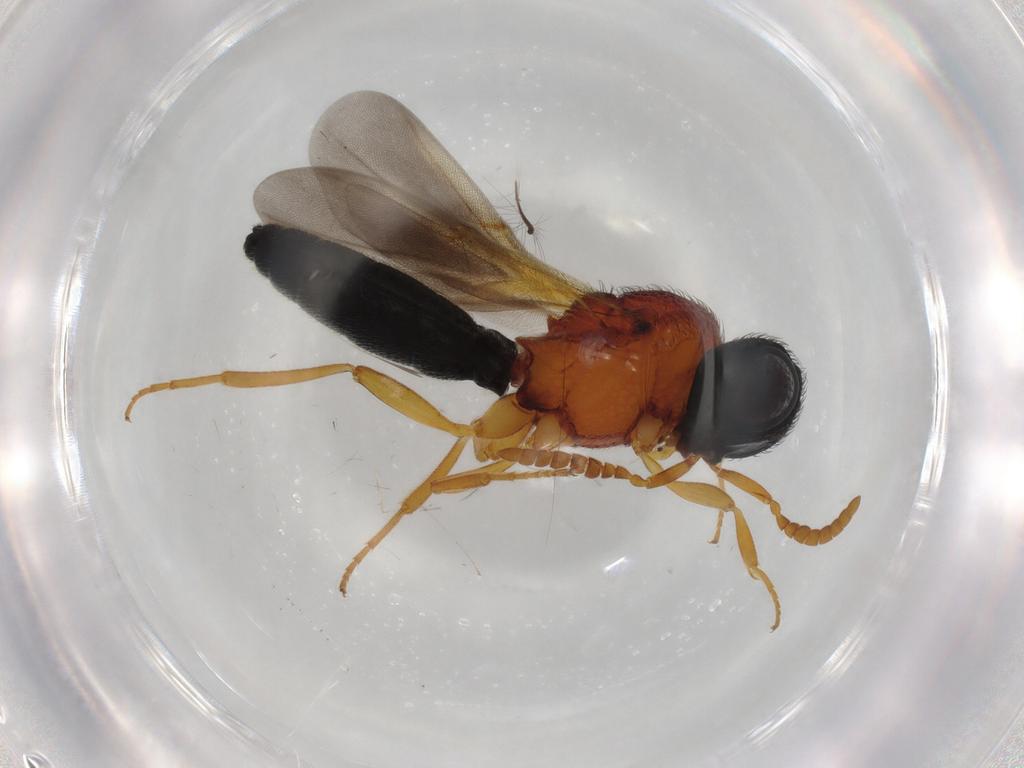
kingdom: Animalia
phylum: Arthropoda
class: Insecta
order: Hymenoptera
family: Scelionidae
